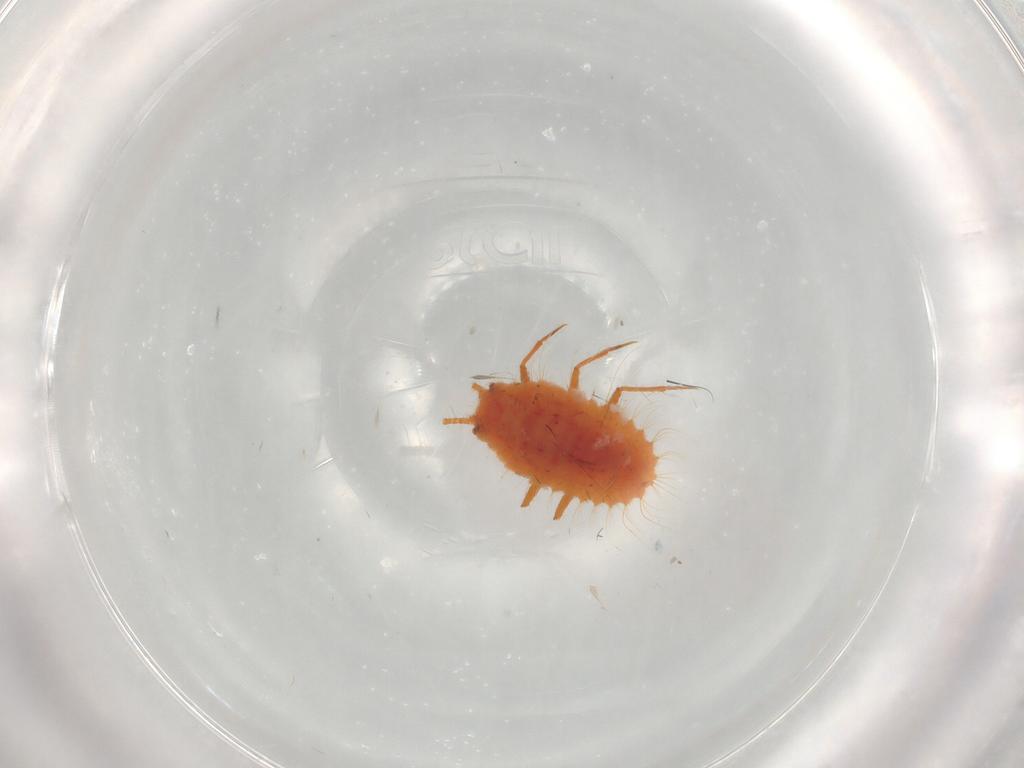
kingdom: Animalia
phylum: Arthropoda
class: Insecta
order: Hemiptera
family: Coccoidea_incertae_sedis
